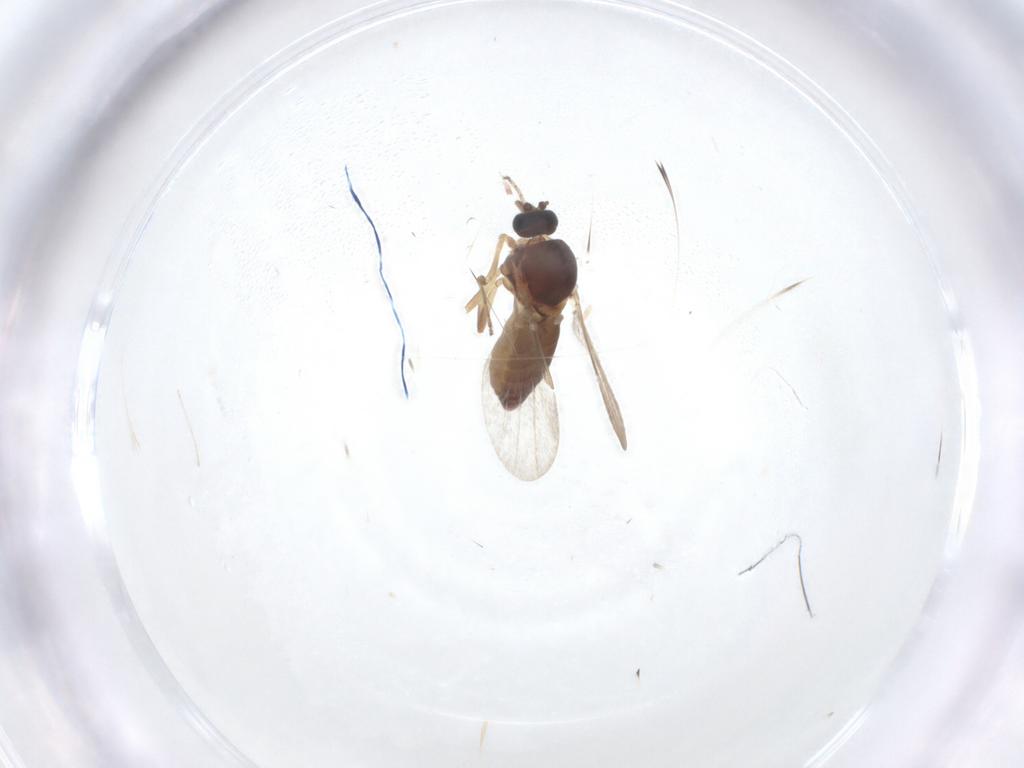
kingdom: Animalia
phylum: Arthropoda
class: Insecta
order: Diptera
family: Ceratopogonidae
